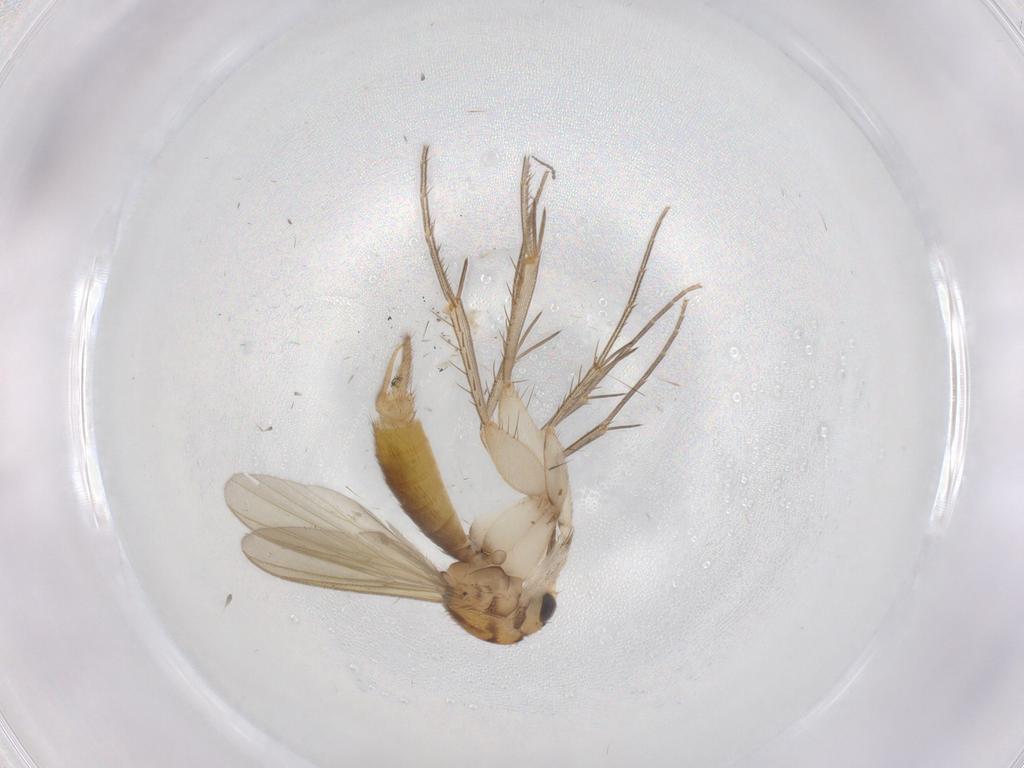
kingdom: Animalia
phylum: Arthropoda
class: Insecta
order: Diptera
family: Mycetophilidae
